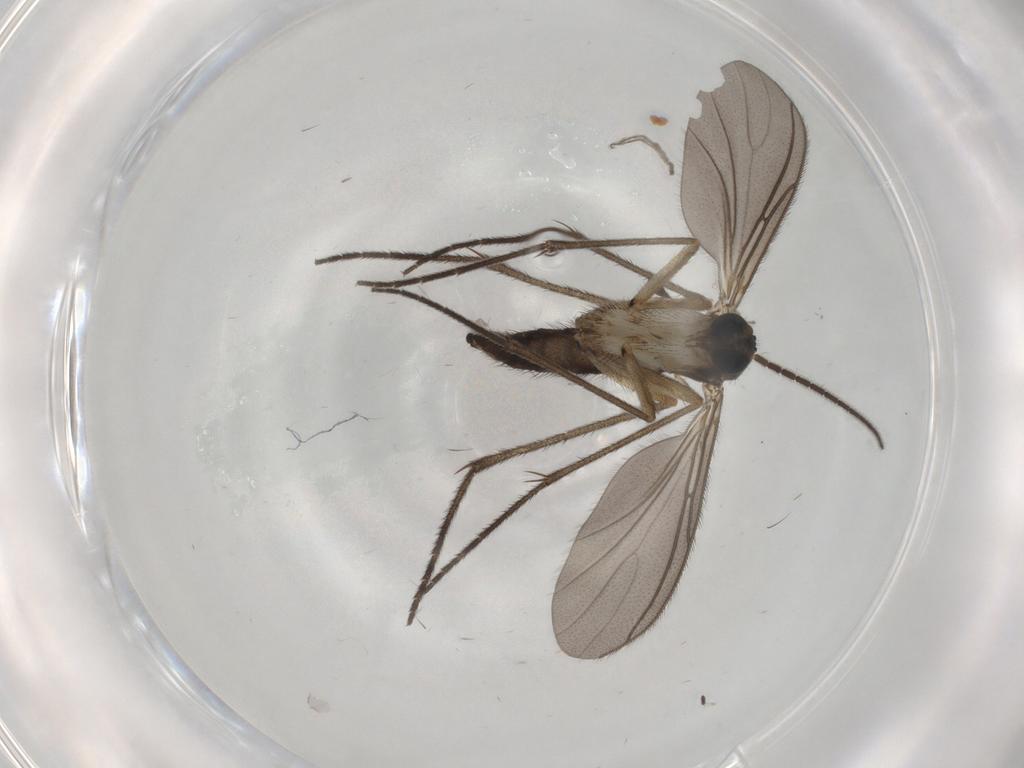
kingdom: Animalia
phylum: Arthropoda
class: Insecta
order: Diptera
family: Sciaridae
